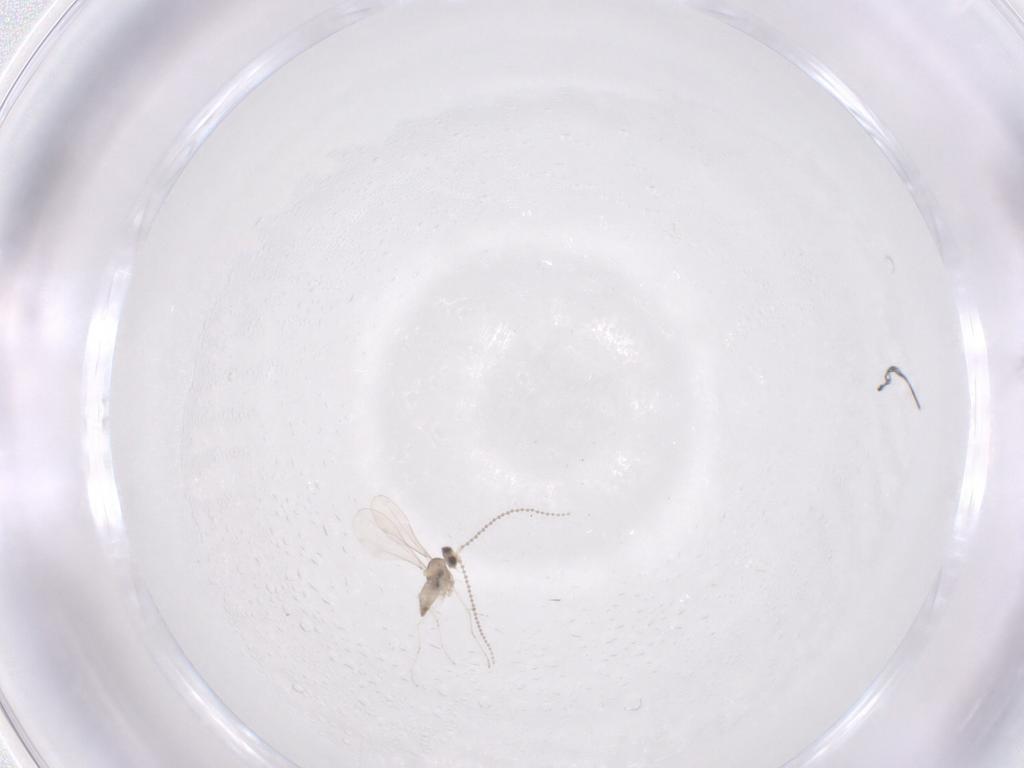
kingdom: Animalia
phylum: Arthropoda
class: Insecta
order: Diptera
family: Cecidomyiidae
